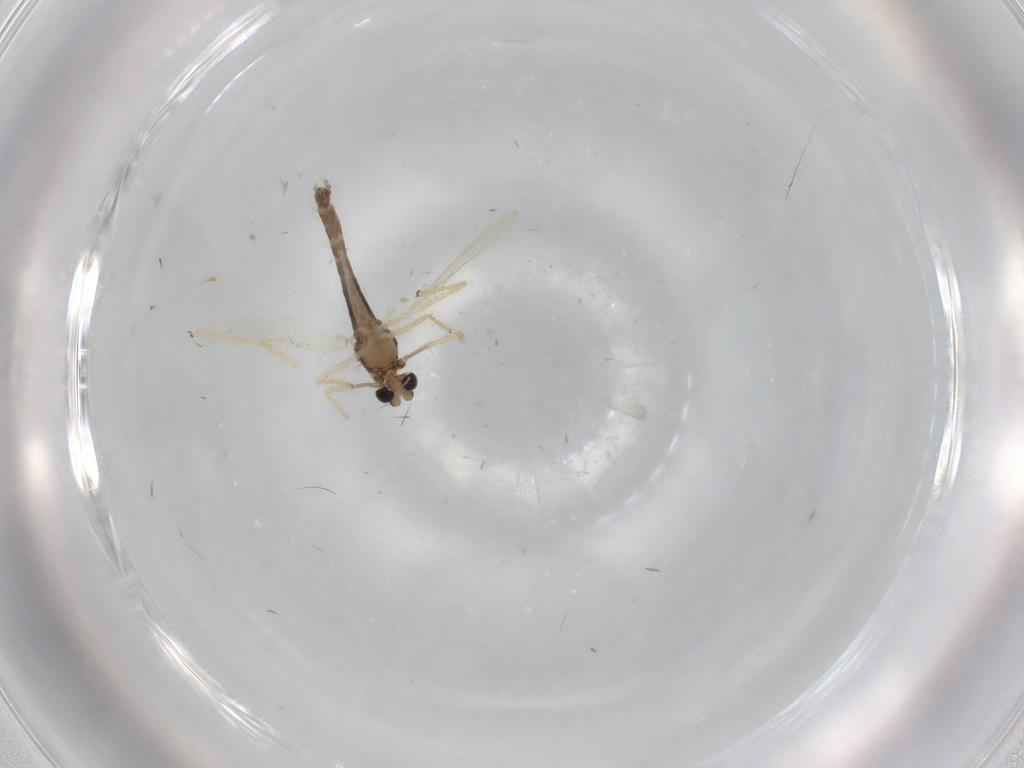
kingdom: Animalia
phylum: Arthropoda
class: Insecta
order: Diptera
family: Chironomidae
